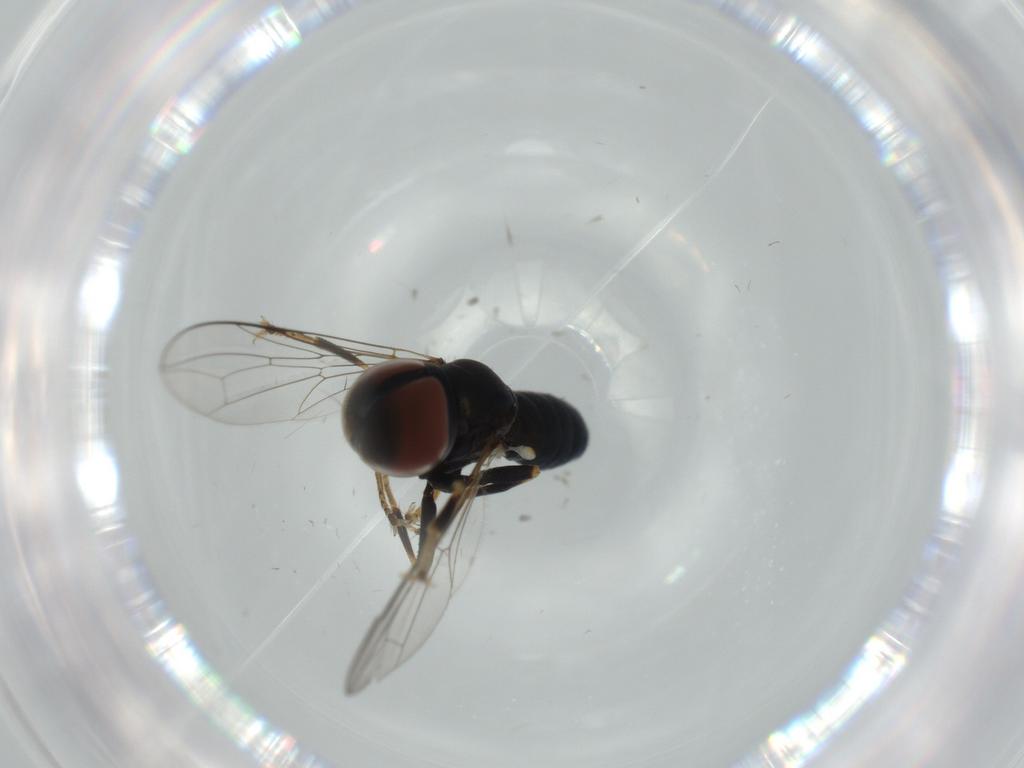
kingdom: Animalia
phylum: Arthropoda
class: Insecta
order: Diptera
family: Pipunculidae
